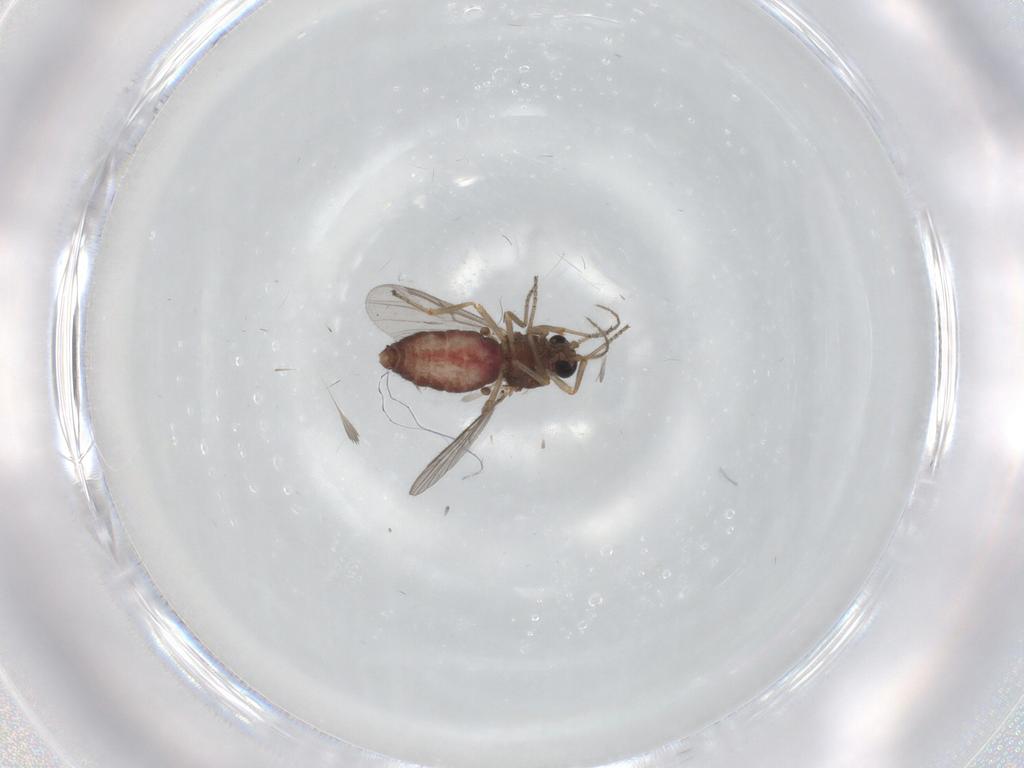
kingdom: Animalia
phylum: Arthropoda
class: Insecta
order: Diptera
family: Ceratopogonidae
